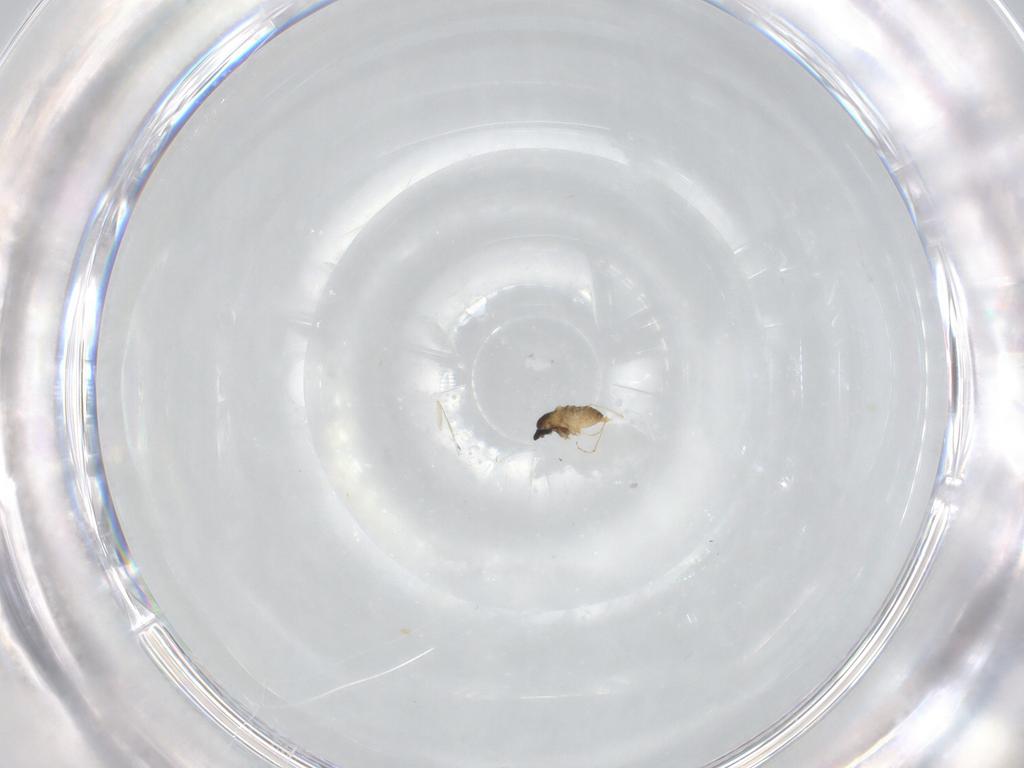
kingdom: Animalia
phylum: Arthropoda
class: Insecta
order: Diptera
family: Cecidomyiidae
